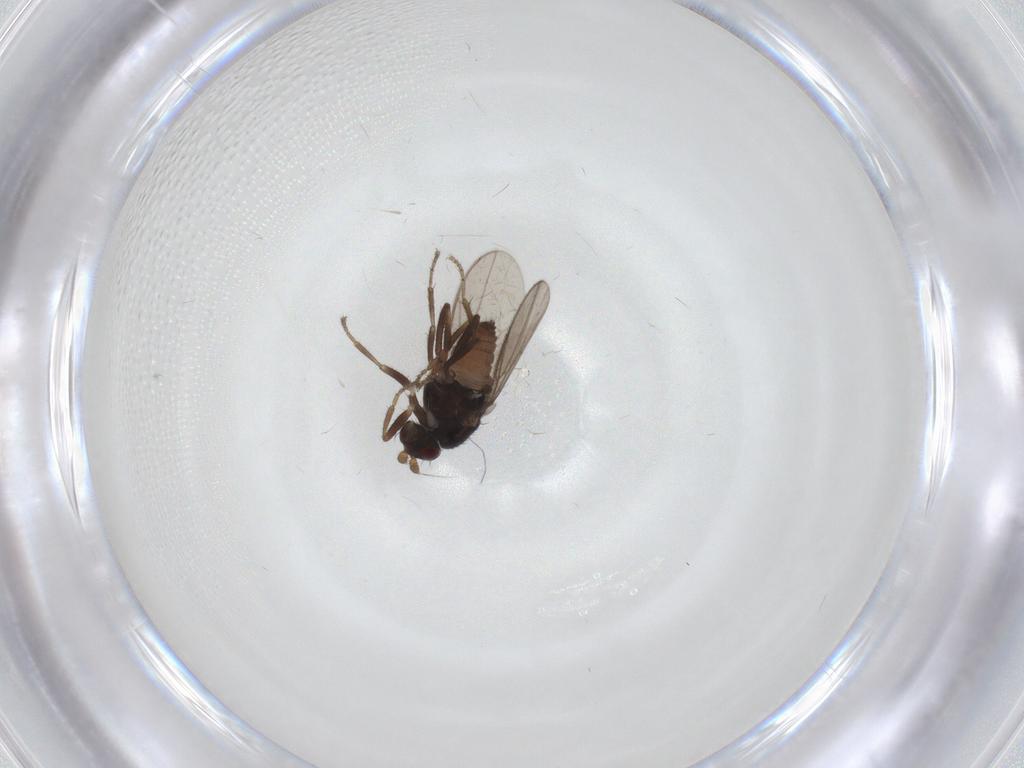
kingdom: Animalia
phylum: Arthropoda
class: Insecta
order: Diptera
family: Sphaeroceridae
